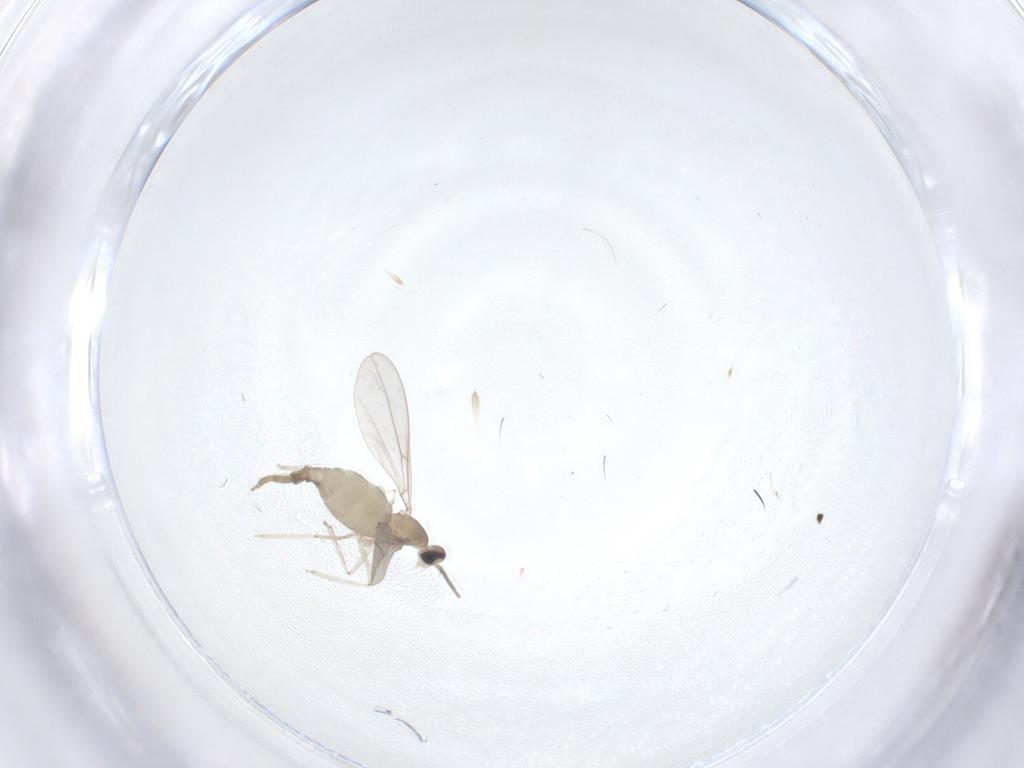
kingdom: Animalia
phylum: Arthropoda
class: Insecta
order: Diptera
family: Cecidomyiidae
